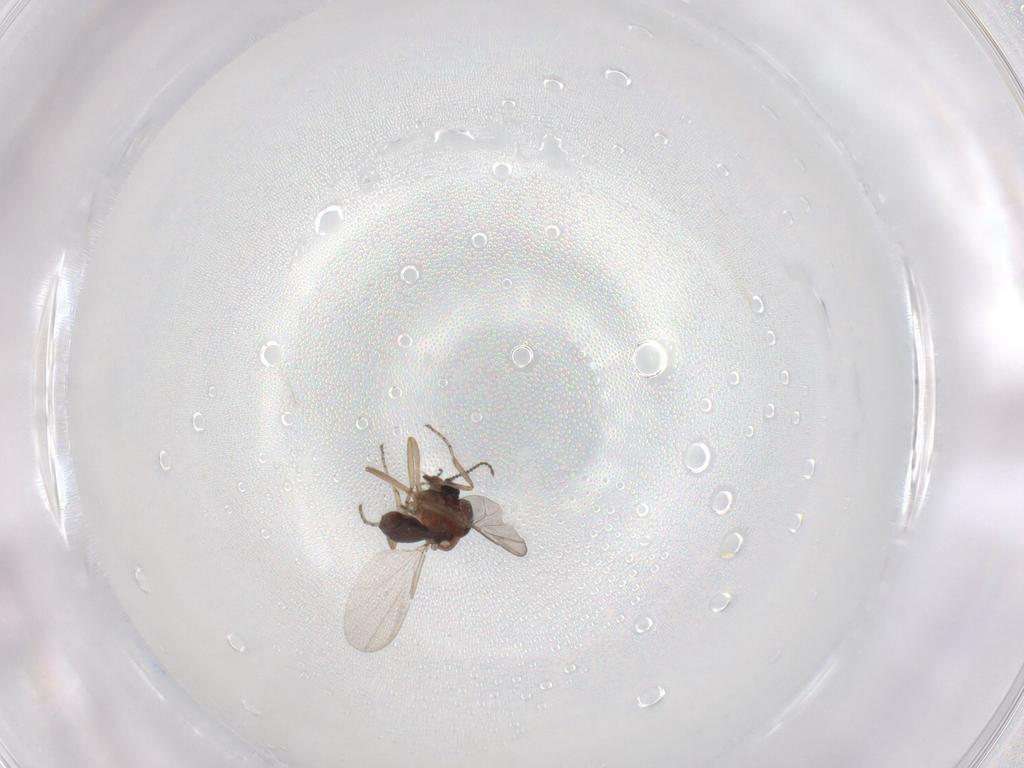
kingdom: Animalia
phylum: Arthropoda
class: Insecta
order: Diptera
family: Ceratopogonidae
